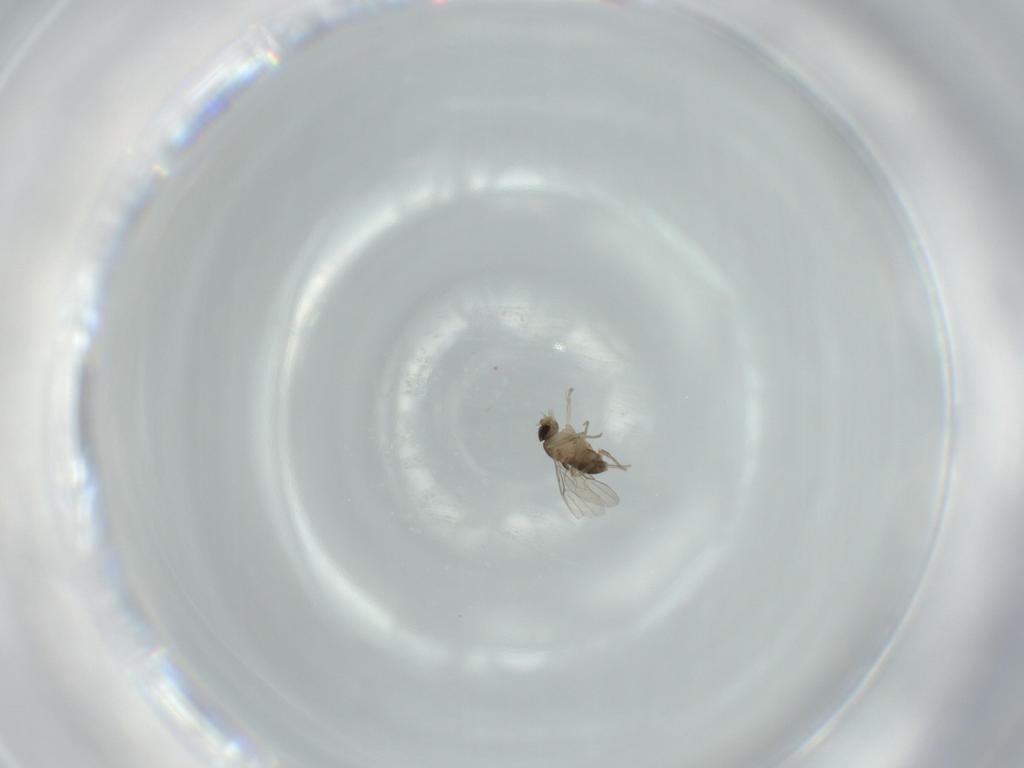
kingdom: Animalia
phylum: Arthropoda
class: Insecta
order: Diptera
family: Phoridae
